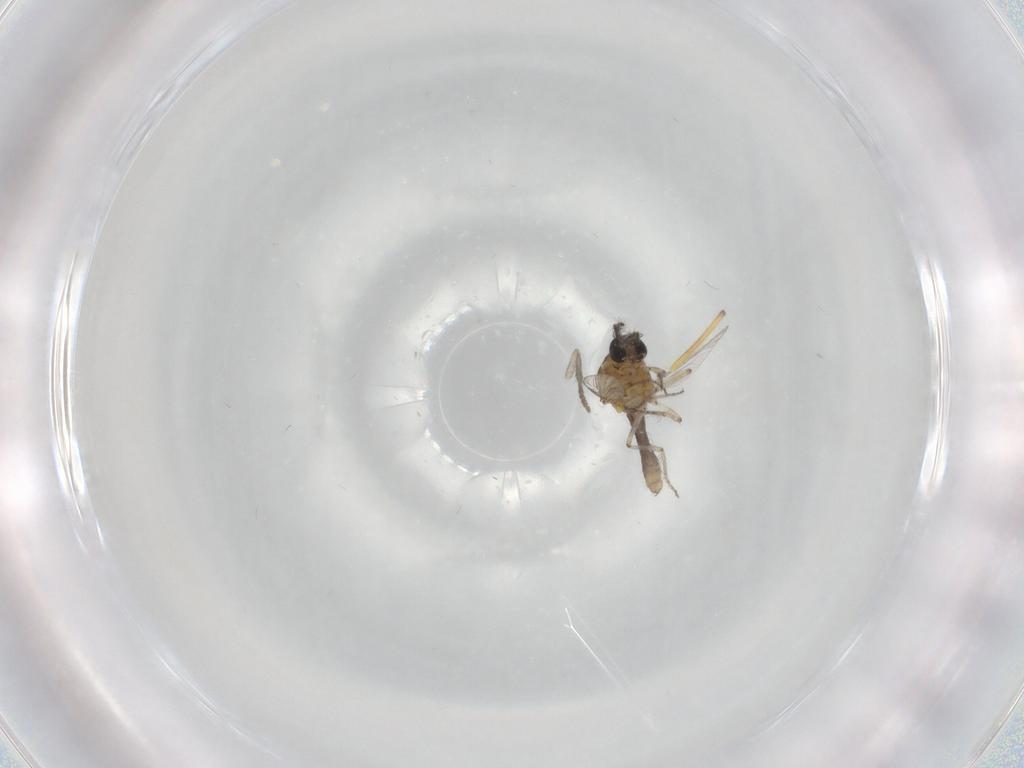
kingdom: Animalia
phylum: Arthropoda
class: Insecta
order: Diptera
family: Ceratopogonidae
